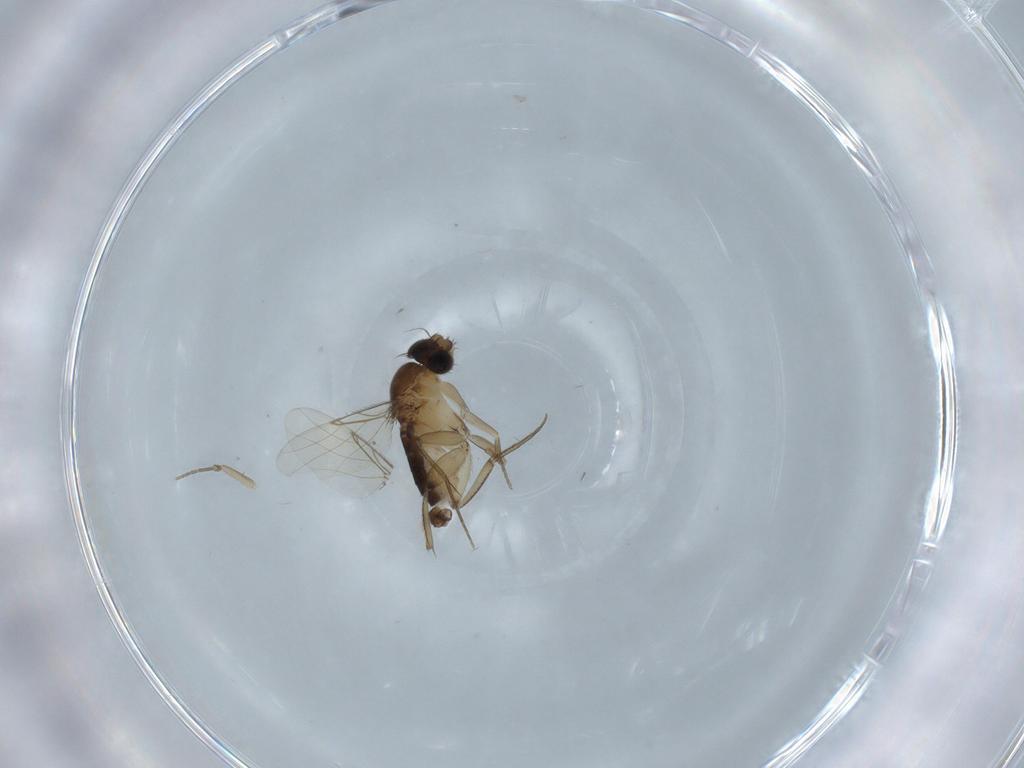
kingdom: Animalia
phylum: Arthropoda
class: Insecta
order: Diptera
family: Phoridae
